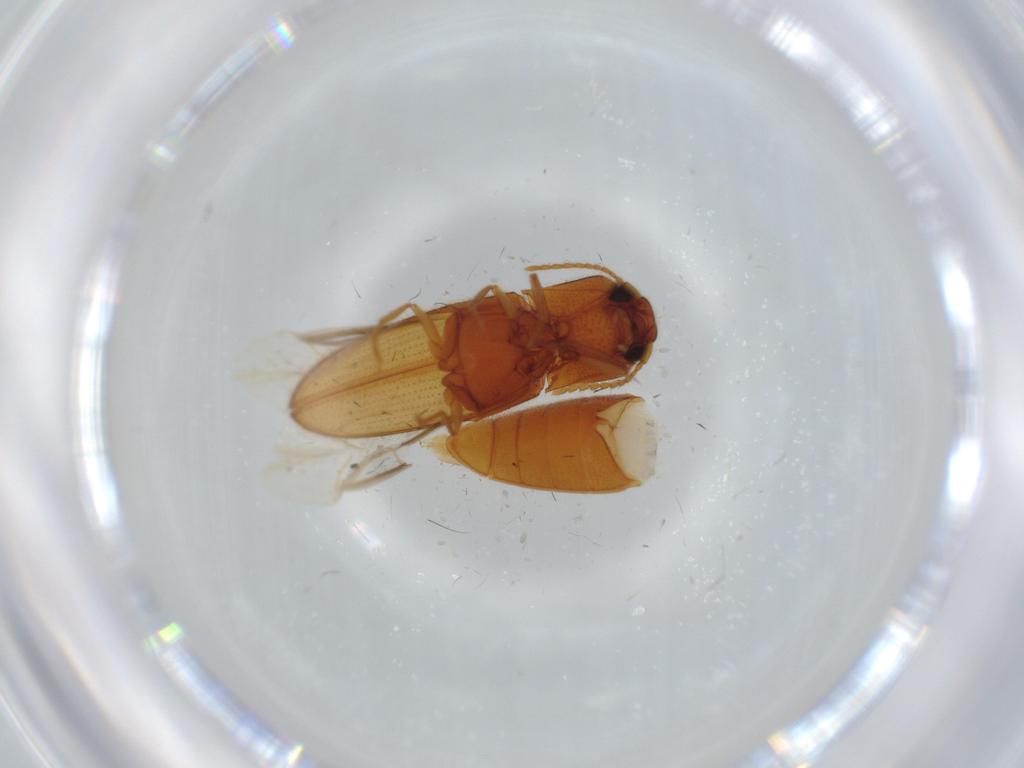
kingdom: Animalia
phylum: Arthropoda
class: Insecta
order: Coleoptera
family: Elateridae
